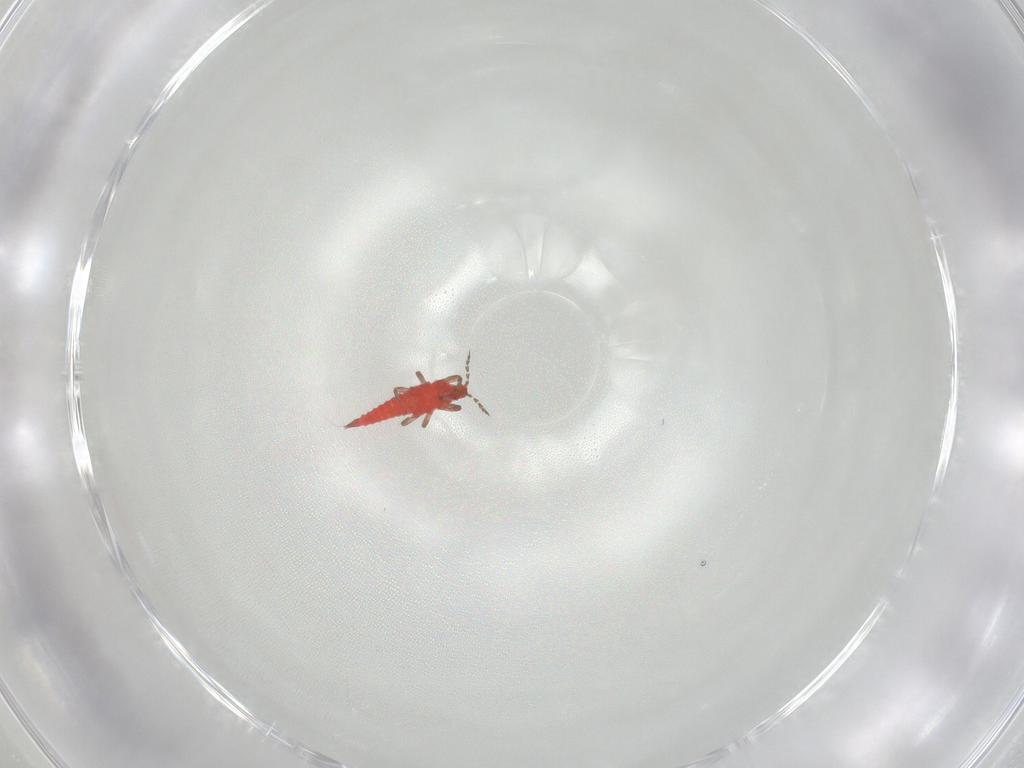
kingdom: Animalia
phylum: Arthropoda
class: Insecta
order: Thysanoptera
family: Phlaeothripidae
